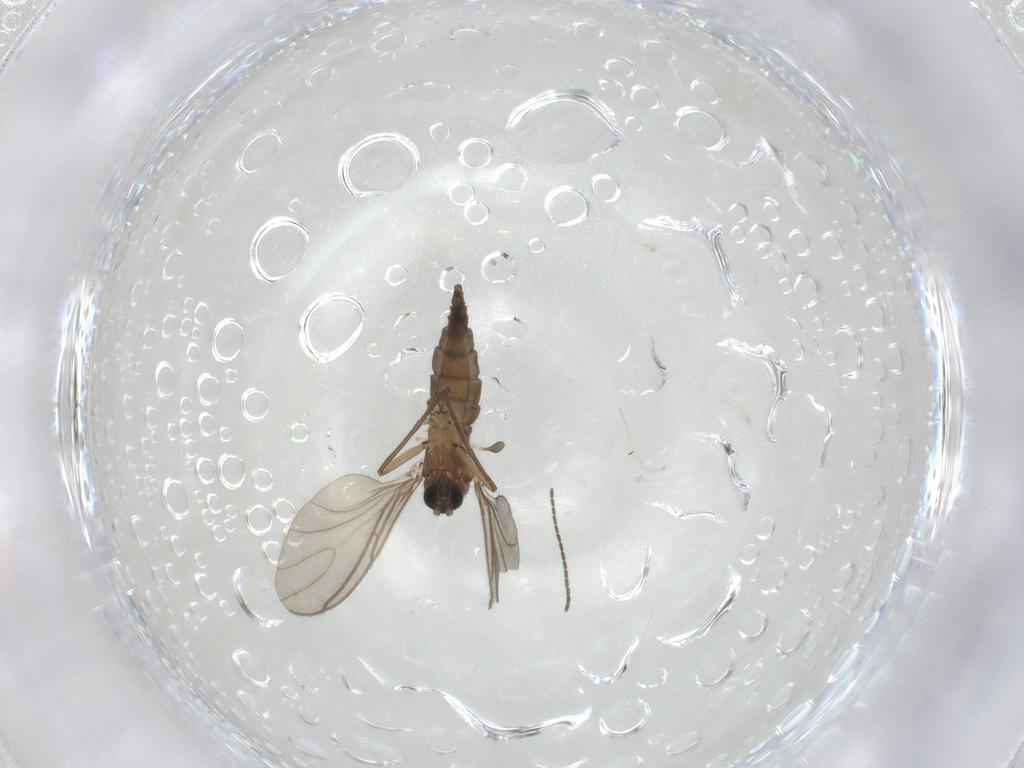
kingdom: Animalia
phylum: Arthropoda
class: Insecta
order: Diptera
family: Sciaridae
